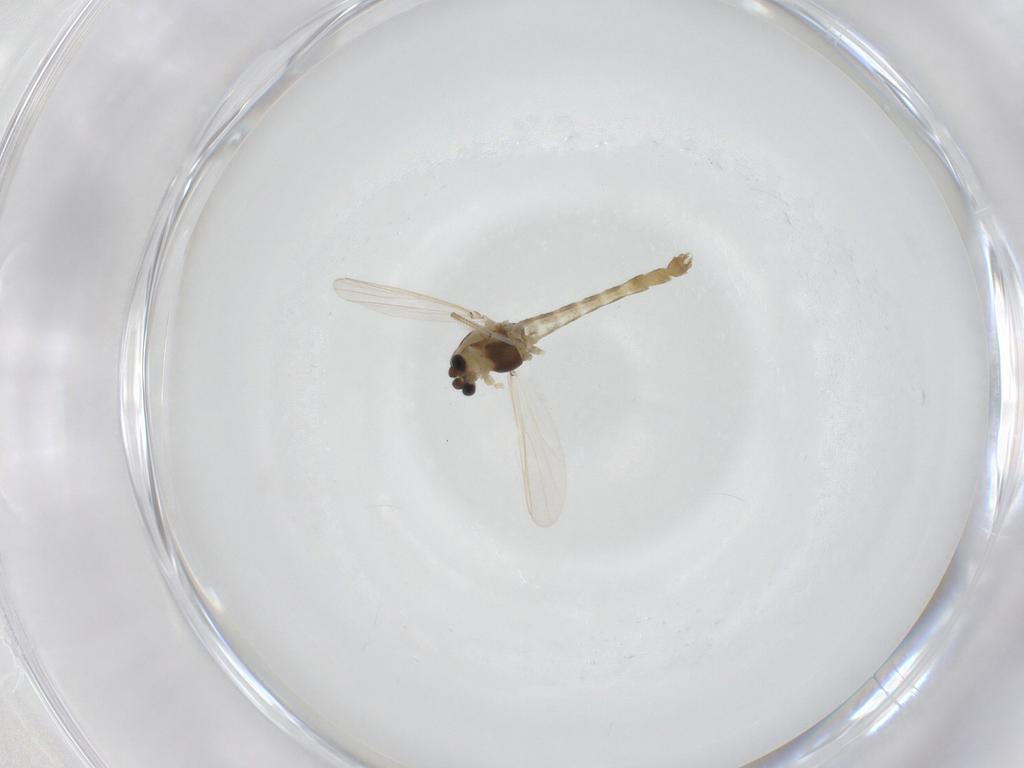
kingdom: Animalia
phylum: Arthropoda
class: Insecta
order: Diptera
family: Chironomidae
